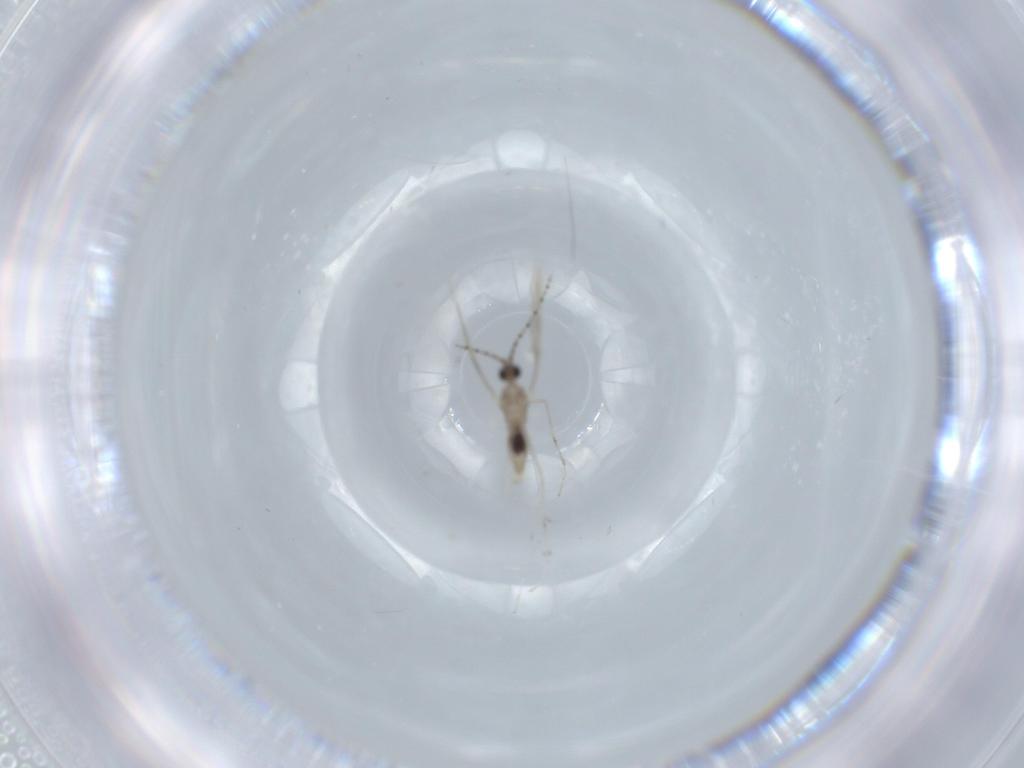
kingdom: Animalia
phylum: Arthropoda
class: Insecta
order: Diptera
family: Cecidomyiidae
